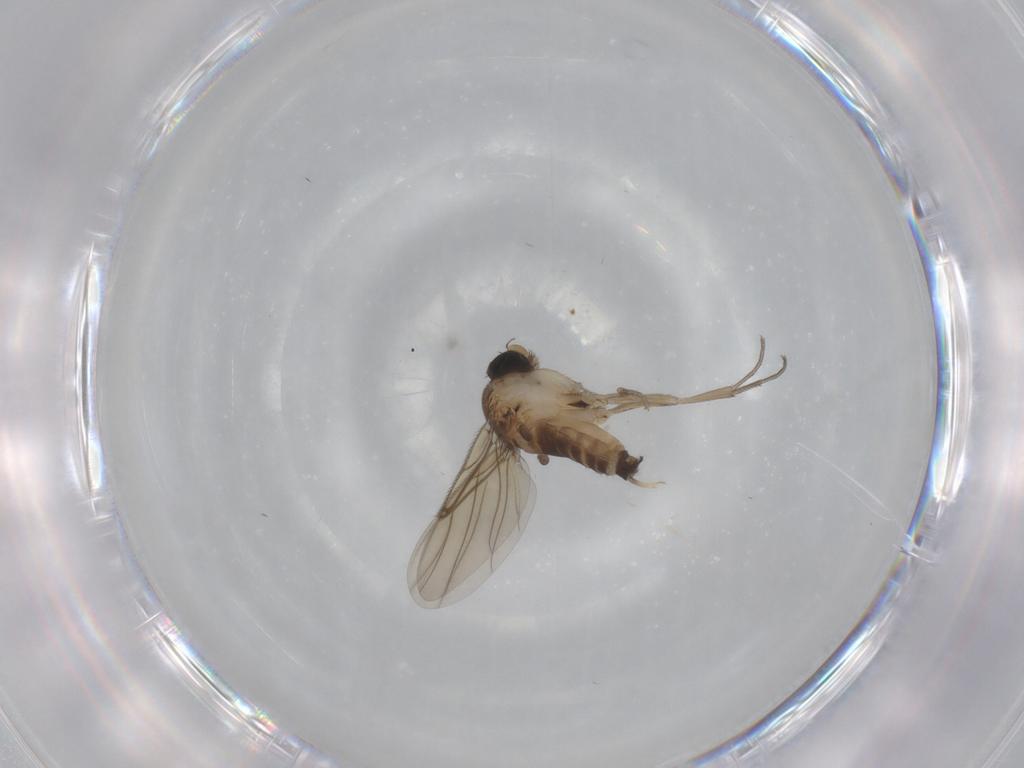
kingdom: Animalia
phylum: Arthropoda
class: Insecta
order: Diptera
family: Phoridae
